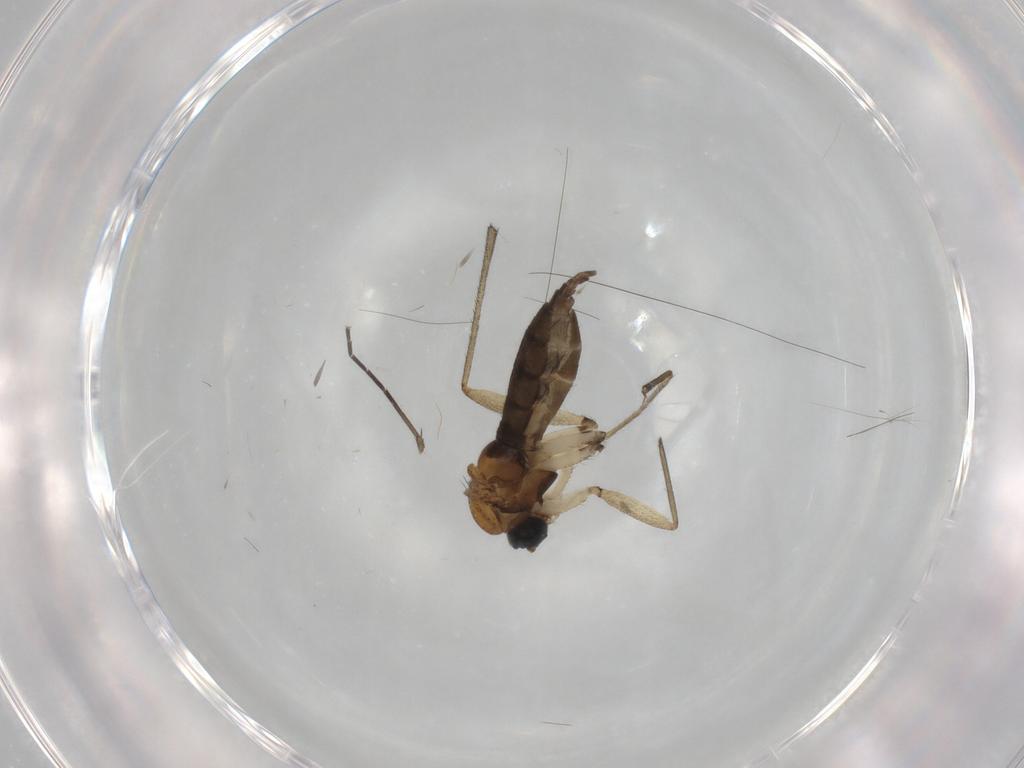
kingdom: Animalia
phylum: Arthropoda
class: Insecta
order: Diptera
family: Sciaridae
